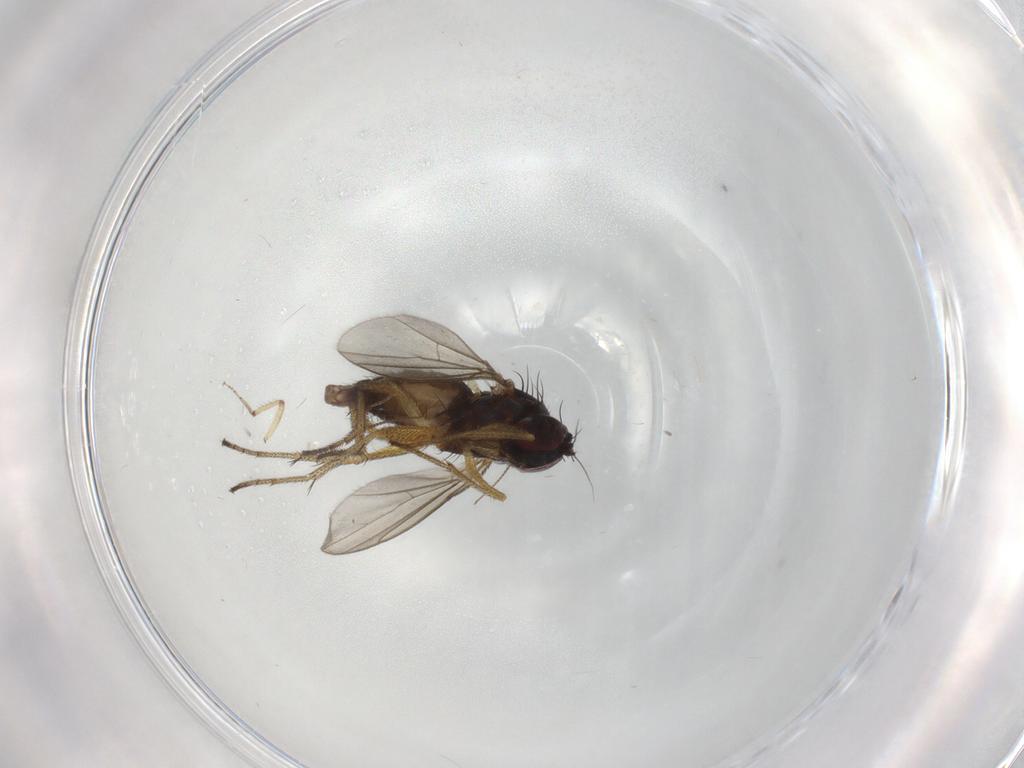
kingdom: Animalia
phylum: Arthropoda
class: Insecta
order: Diptera
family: Chironomidae
